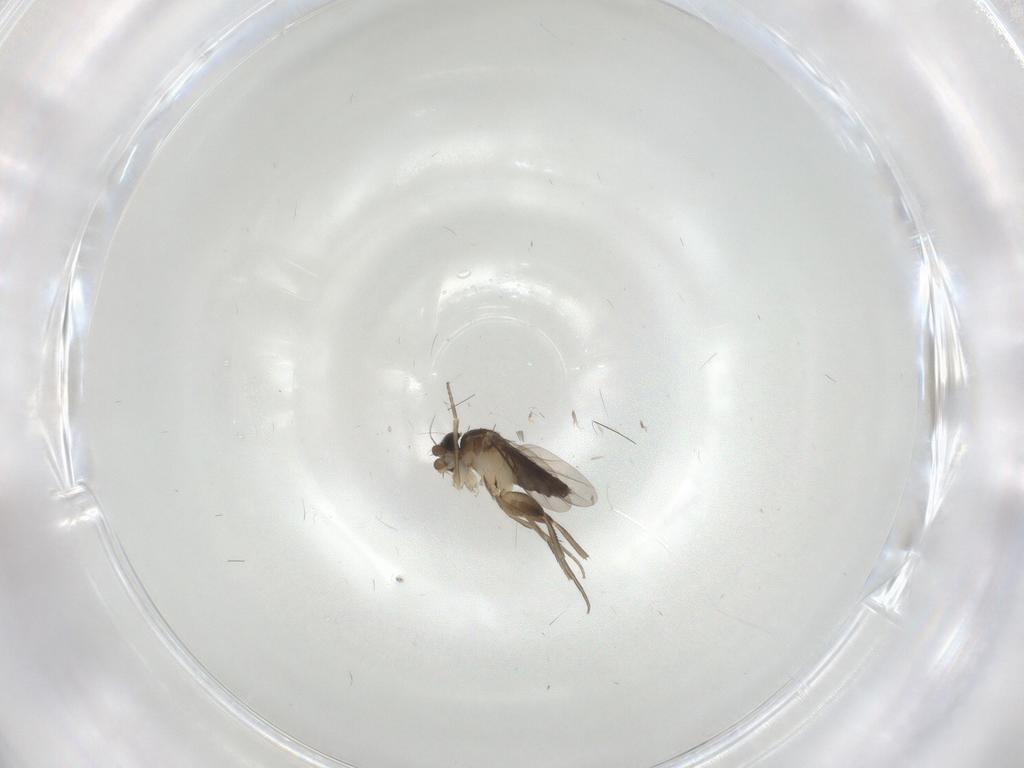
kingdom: Animalia
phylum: Arthropoda
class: Insecta
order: Diptera
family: Phoridae
